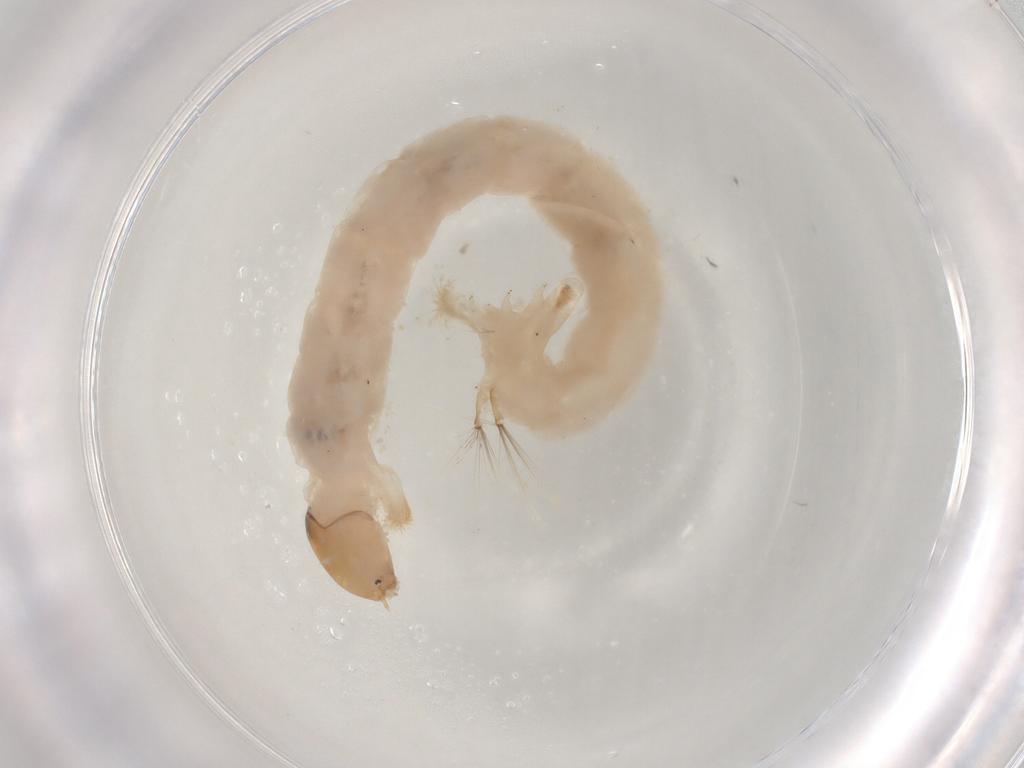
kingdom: Animalia
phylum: Arthropoda
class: Insecta
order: Diptera
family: Chironomidae
